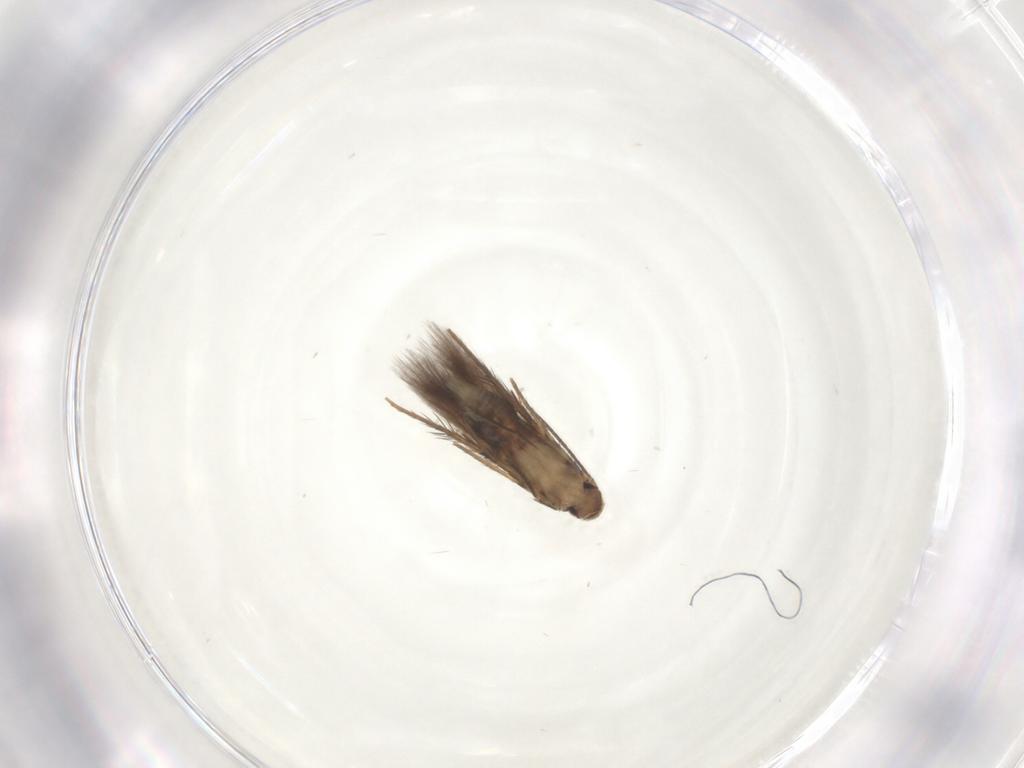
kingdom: Animalia
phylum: Arthropoda
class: Insecta
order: Lepidoptera
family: Pyralidae
